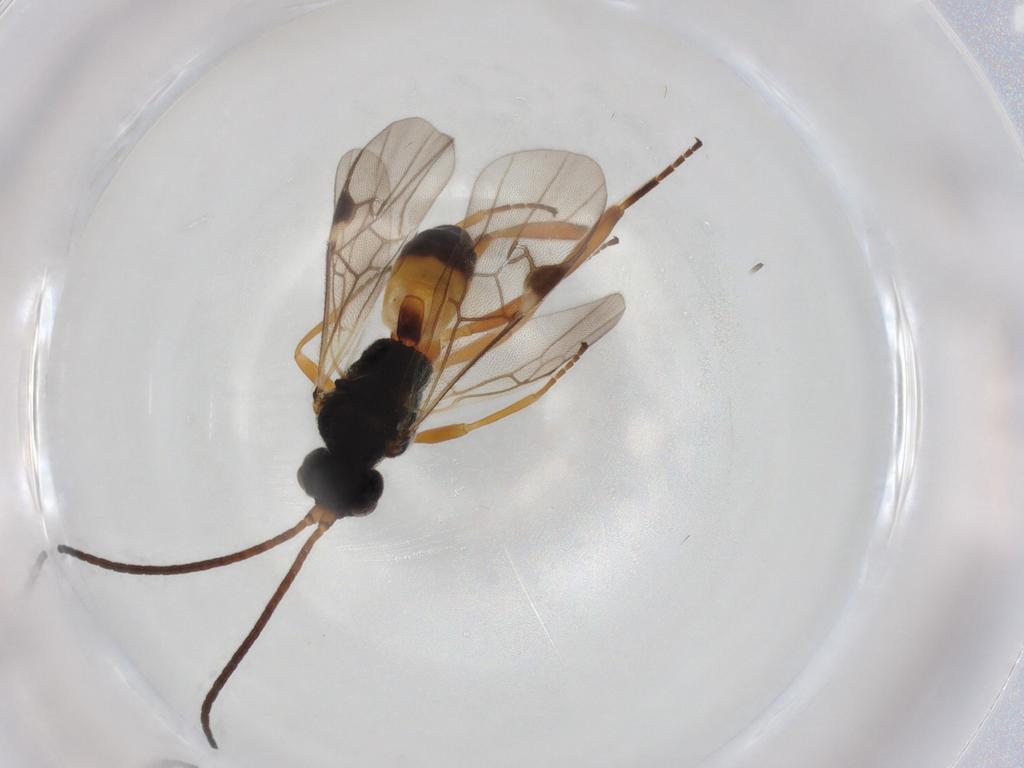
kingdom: Animalia
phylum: Arthropoda
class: Insecta
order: Hymenoptera
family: Braconidae
